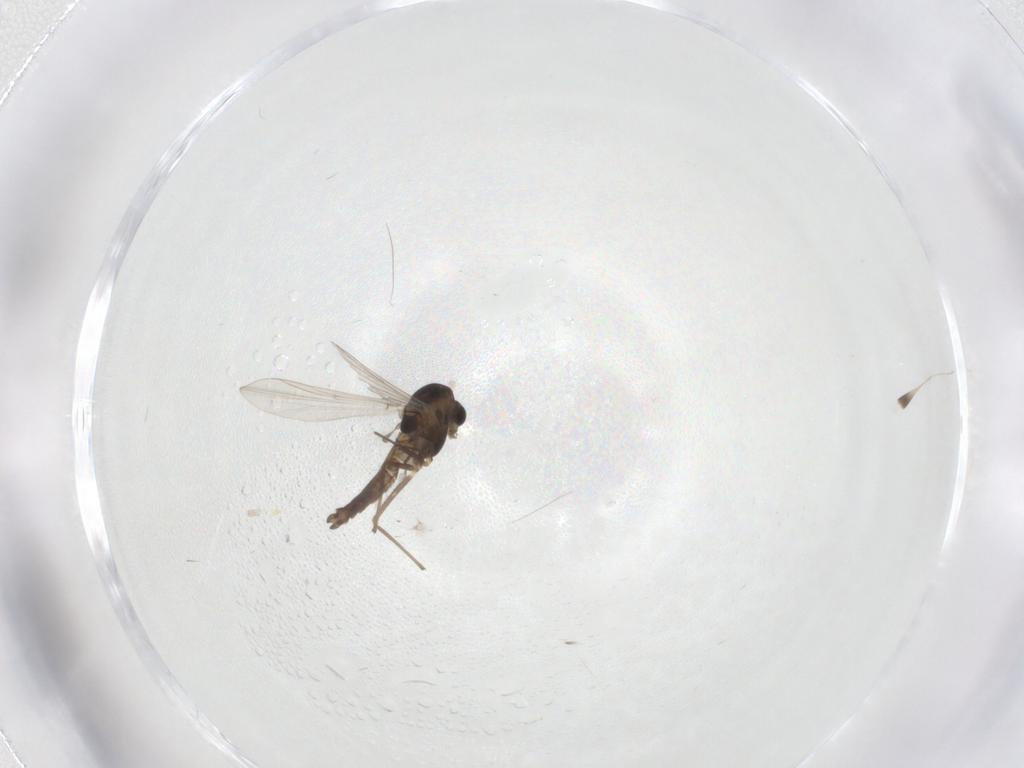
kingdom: Animalia
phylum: Arthropoda
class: Insecta
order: Diptera
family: Chironomidae
